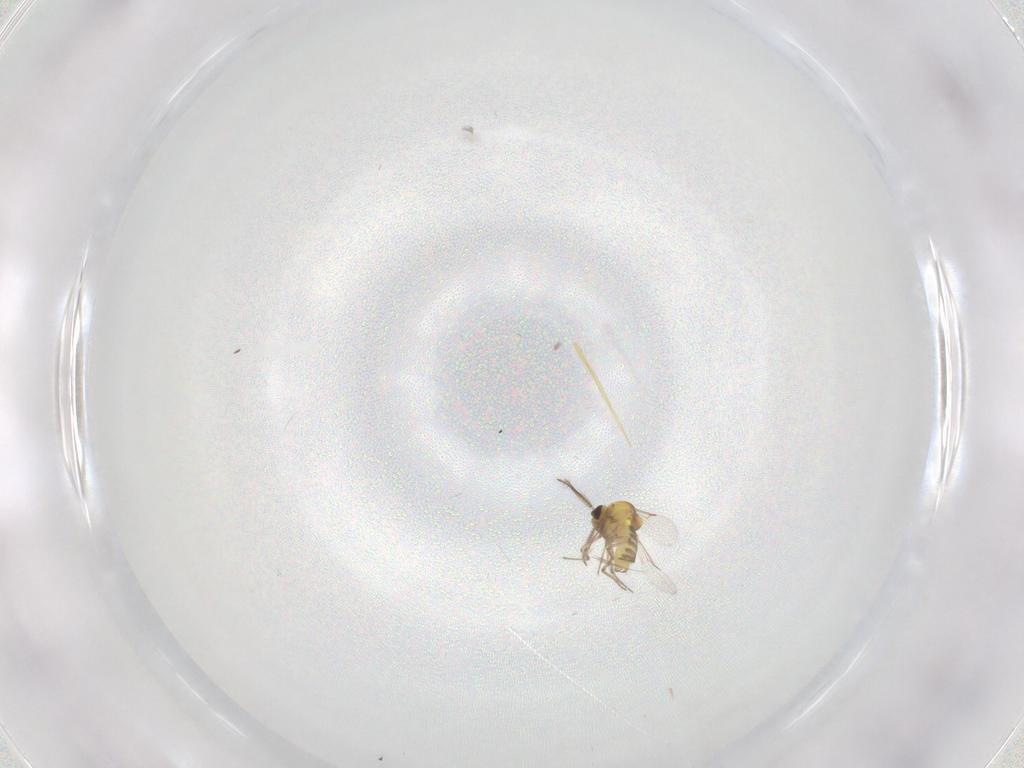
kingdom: Animalia
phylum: Arthropoda
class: Insecta
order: Diptera
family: Ceratopogonidae
